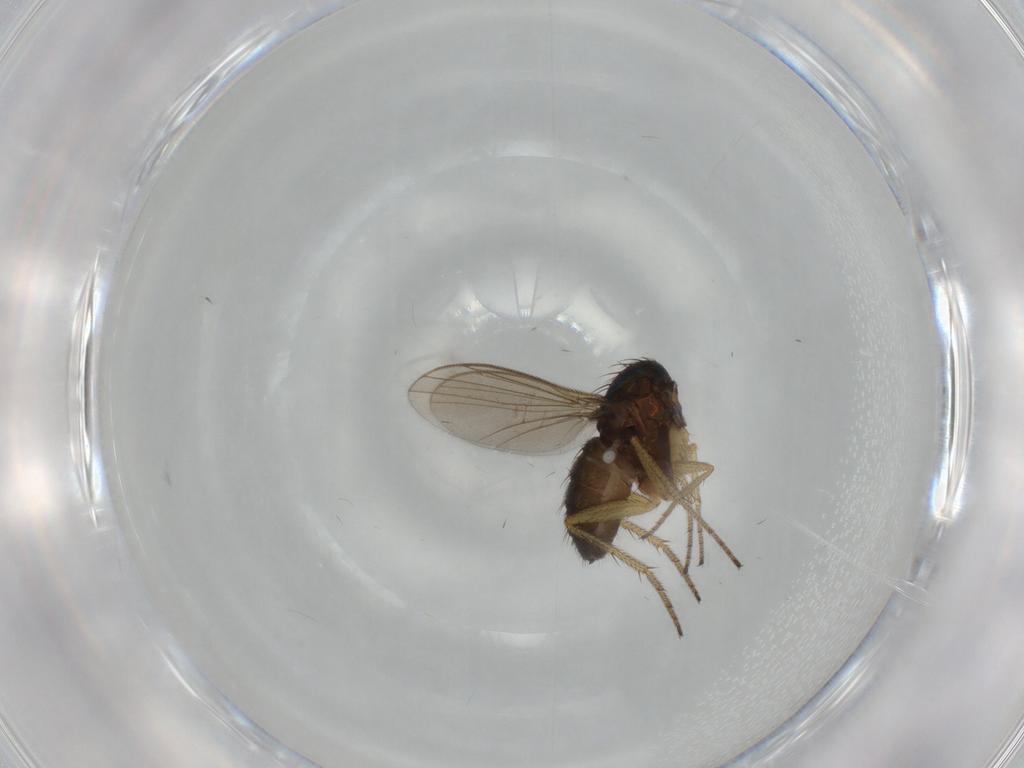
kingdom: Animalia
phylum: Arthropoda
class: Insecta
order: Diptera
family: Dolichopodidae
